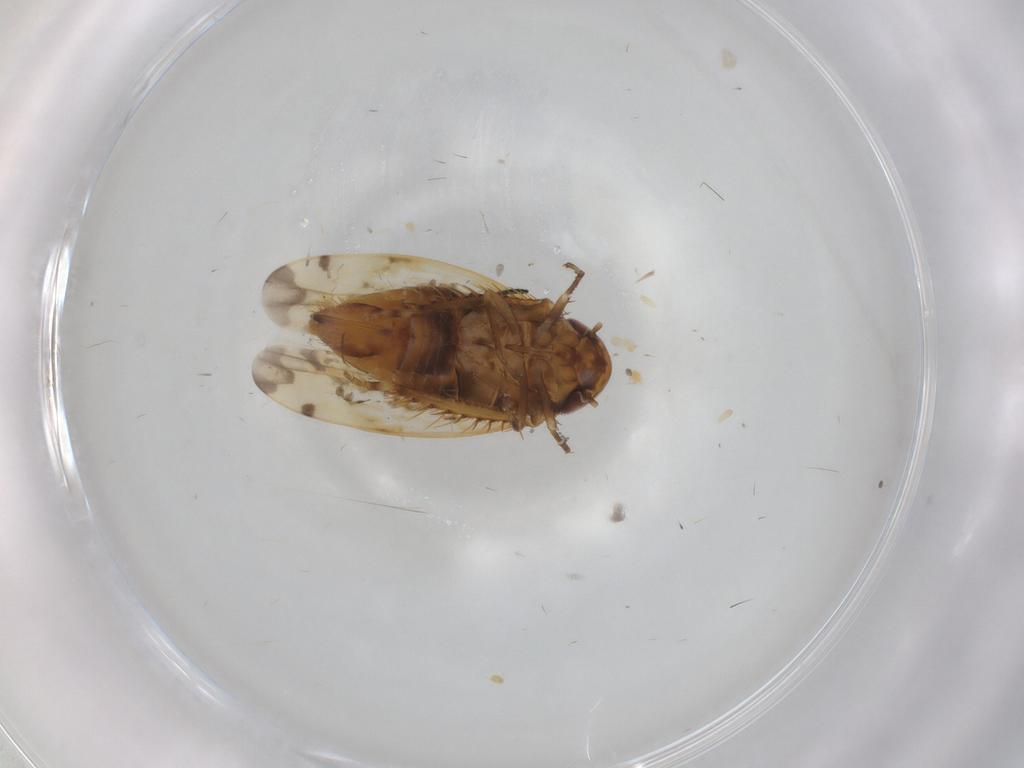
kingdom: Animalia
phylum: Arthropoda
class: Insecta
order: Hemiptera
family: Cicadellidae
